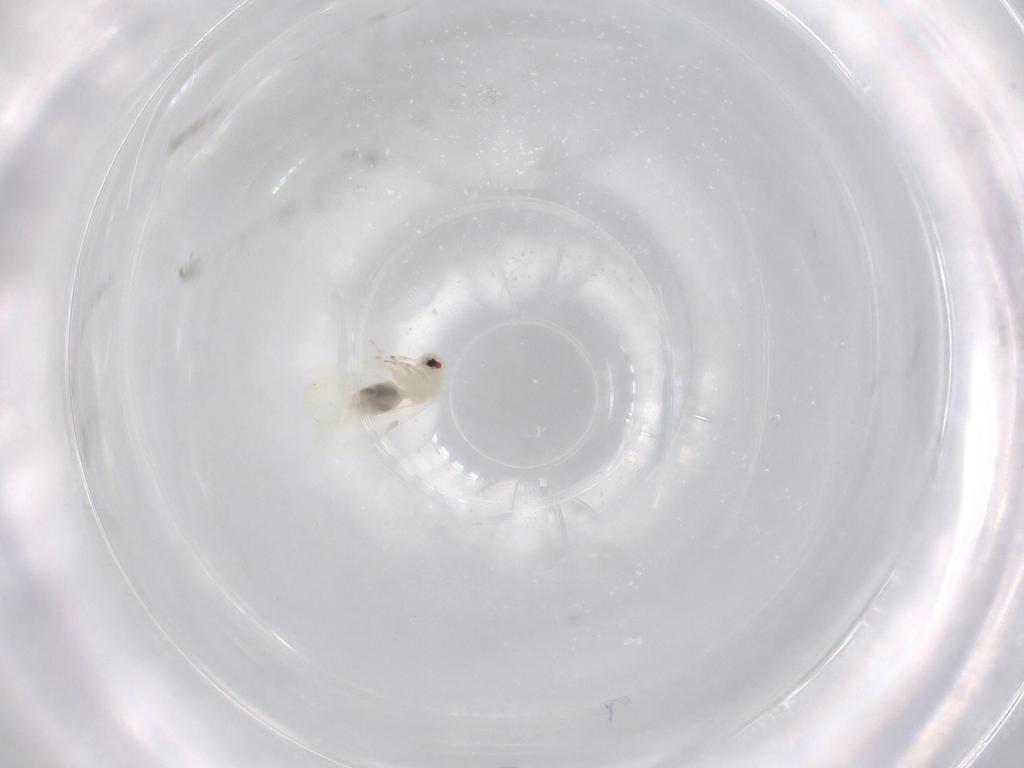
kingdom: Animalia
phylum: Arthropoda
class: Insecta
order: Hemiptera
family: Aleyrodidae
